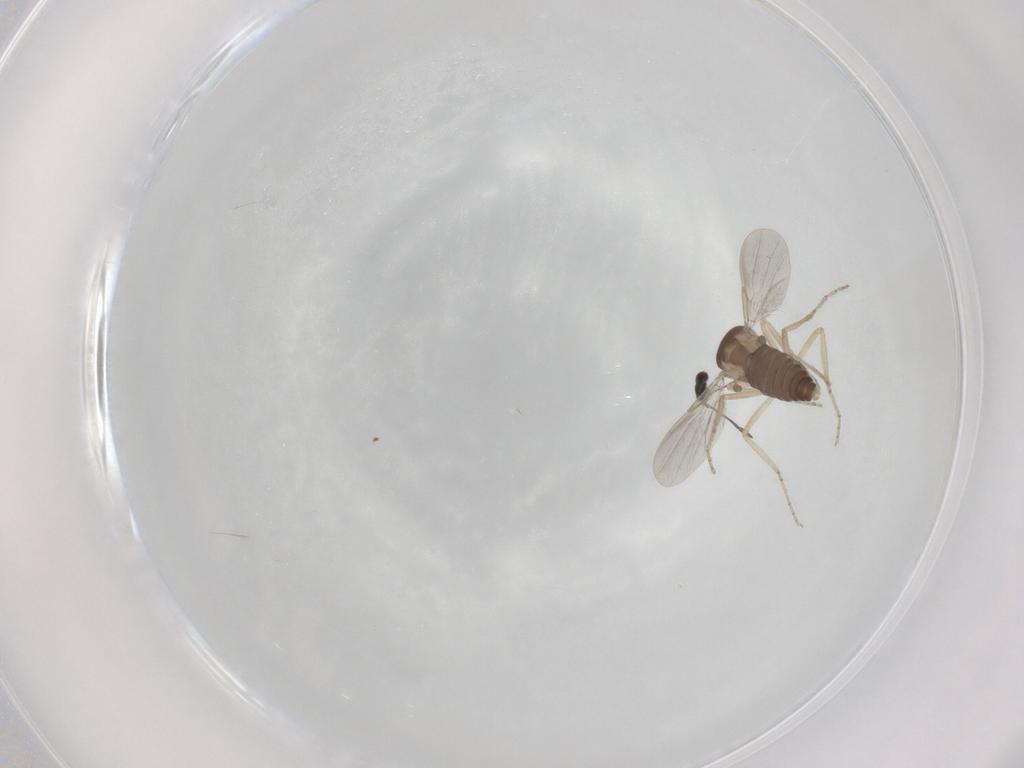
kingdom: Animalia
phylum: Arthropoda
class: Insecta
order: Diptera
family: Ceratopogonidae
